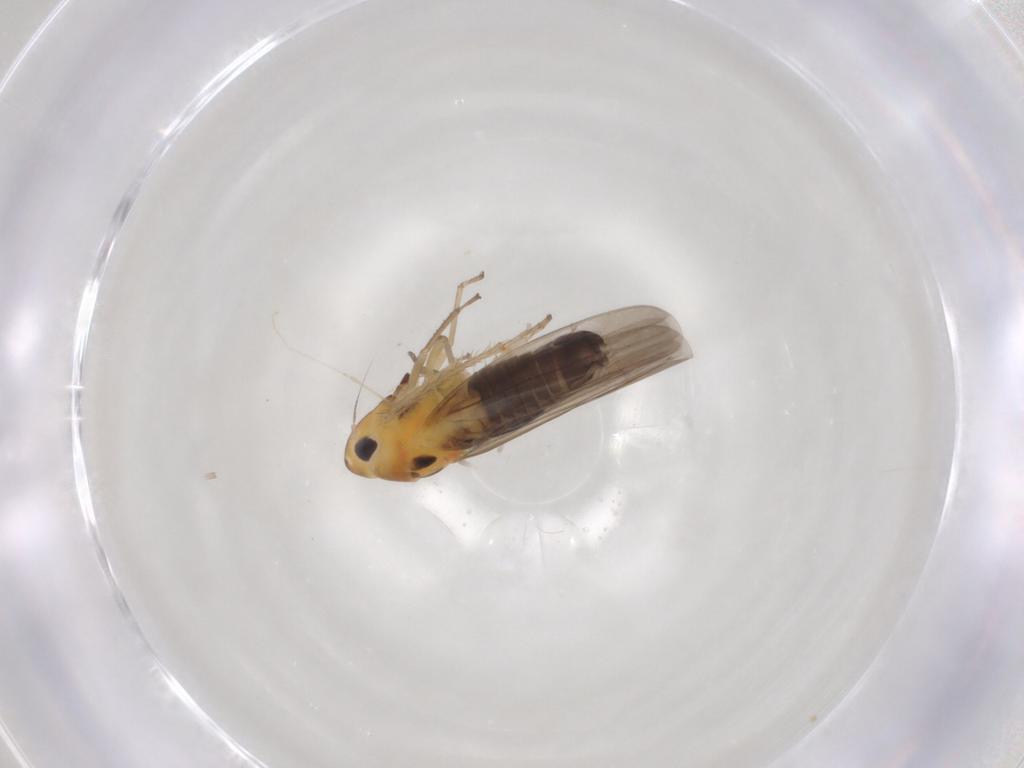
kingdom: Animalia
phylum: Arthropoda
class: Insecta
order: Hemiptera
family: Cicadellidae
